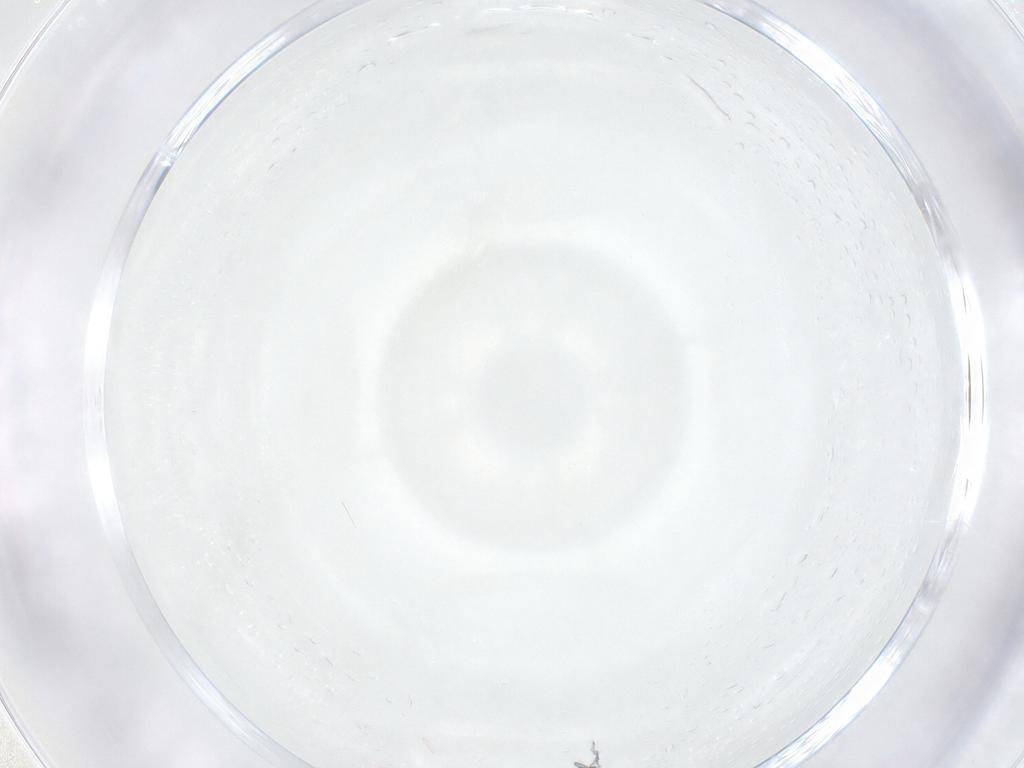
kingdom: Animalia
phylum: Arthropoda
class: Insecta
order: Diptera
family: Psychodidae
